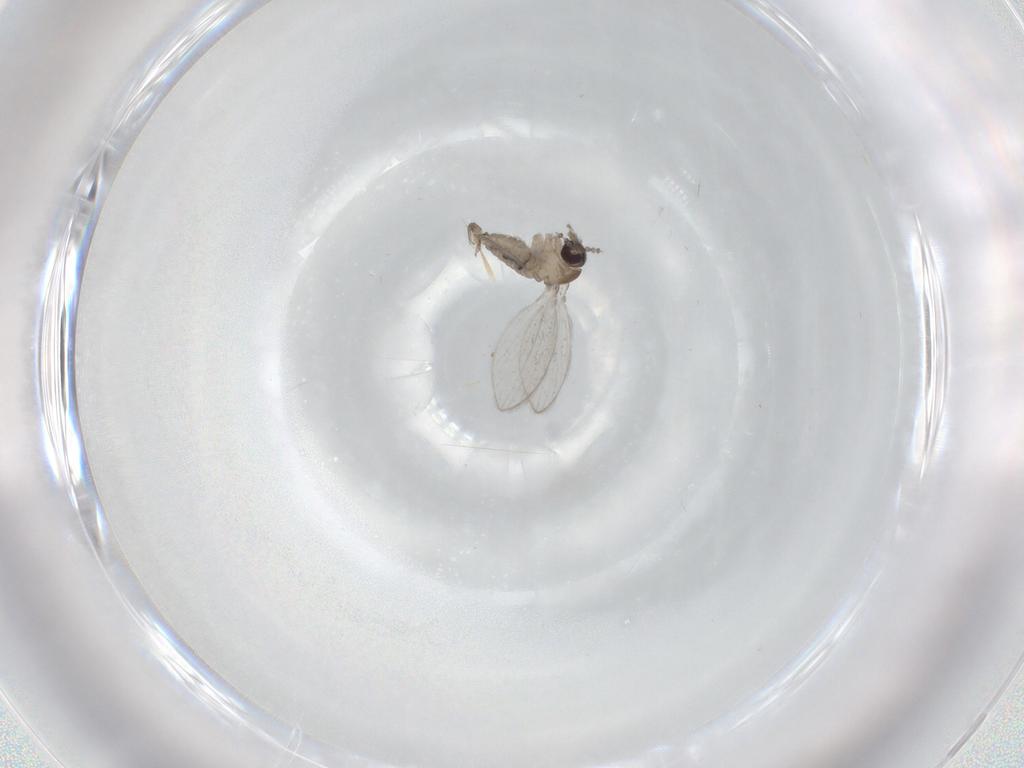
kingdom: Animalia
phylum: Arthropoda
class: Insecta
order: Diptera
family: Psychodidae
